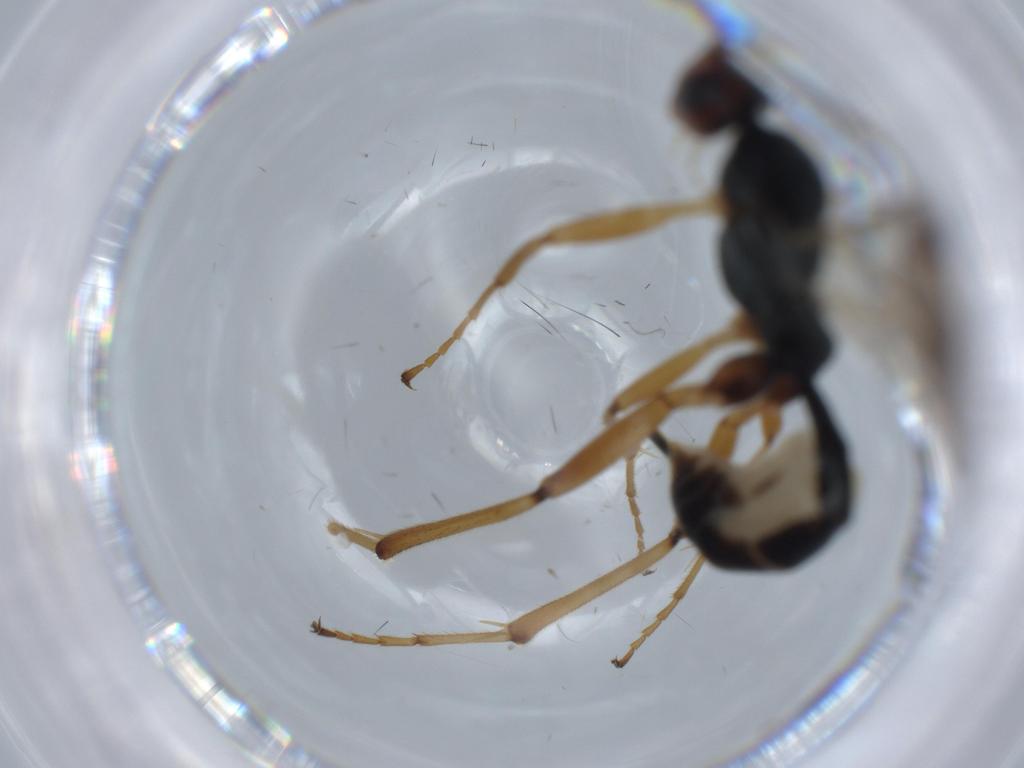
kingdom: Animalia
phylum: Arthropoda
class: Insecta
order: Hymenoptera
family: Ichneumonidae
